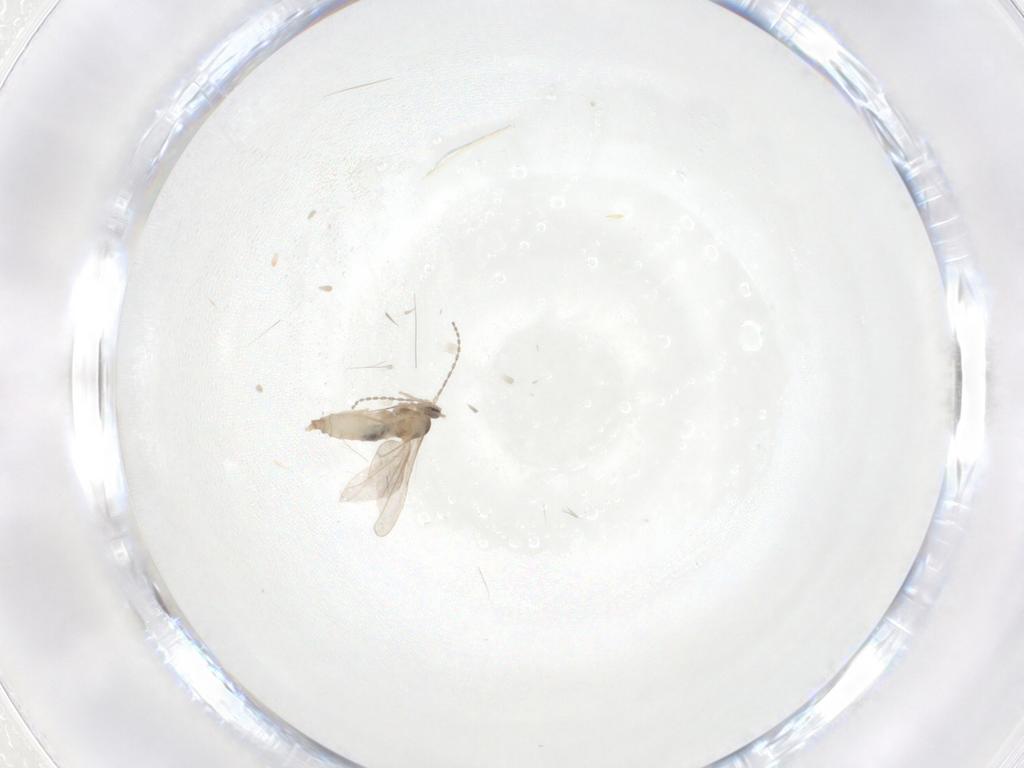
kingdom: Animalia
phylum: Arthropoda
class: Insecta
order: Diptera
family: Cecidomyiidae
